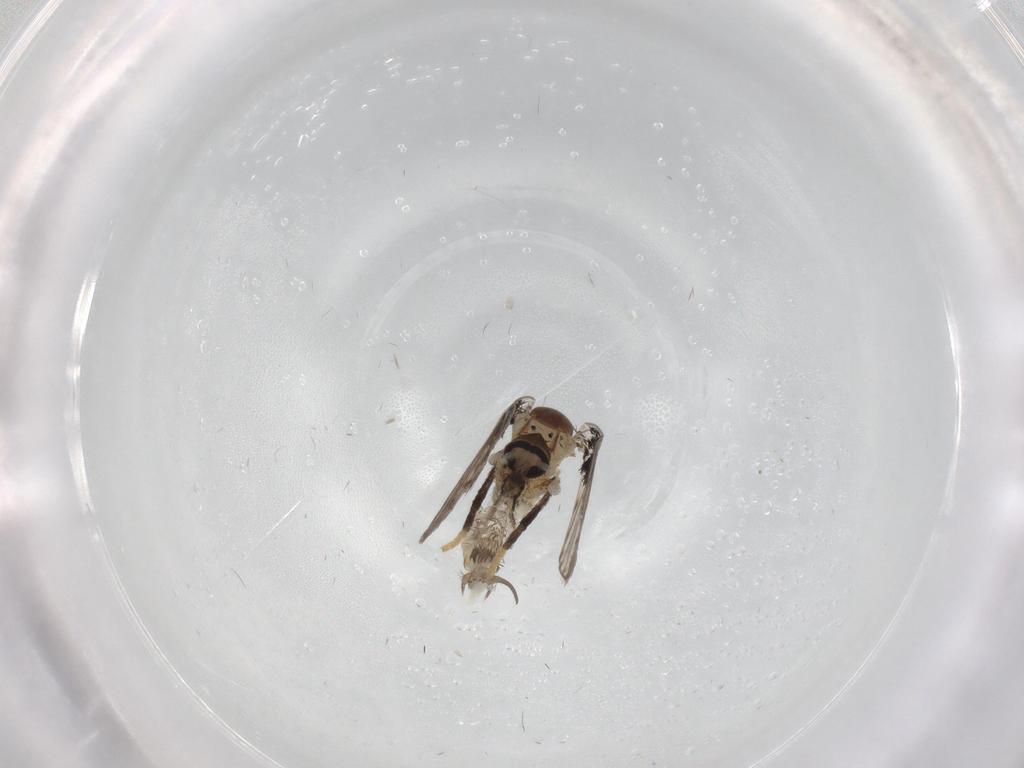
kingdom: Animalia
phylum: Arthropoda
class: Insecta
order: Diptera
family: Psychodidae
